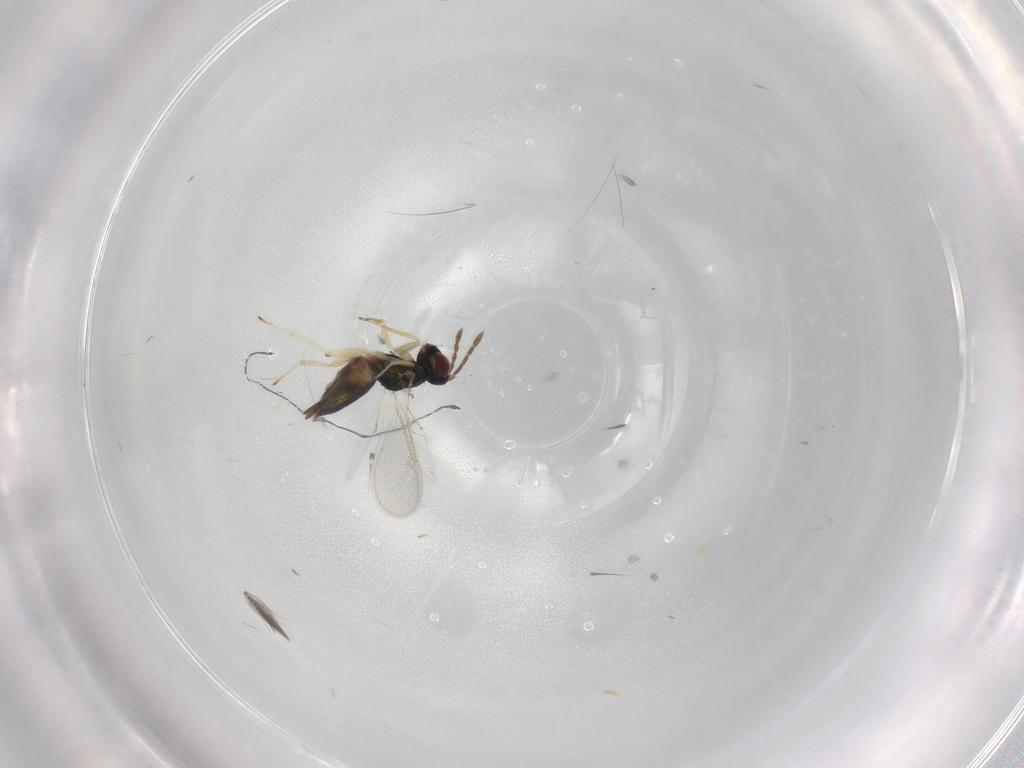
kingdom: Animalia
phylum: Arthropoda
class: Insecta
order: Hymenoptera
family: Eulophidae
